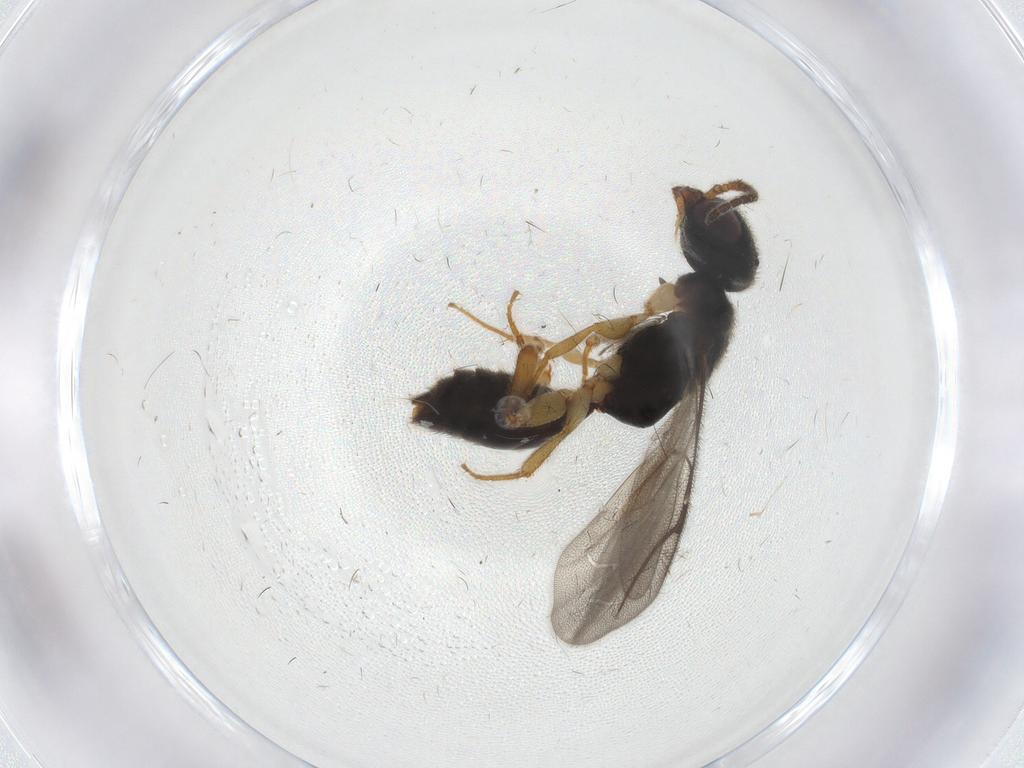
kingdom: Animalia
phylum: Arthropoda
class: Insecta
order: Hymenoptera
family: Bethylidae
